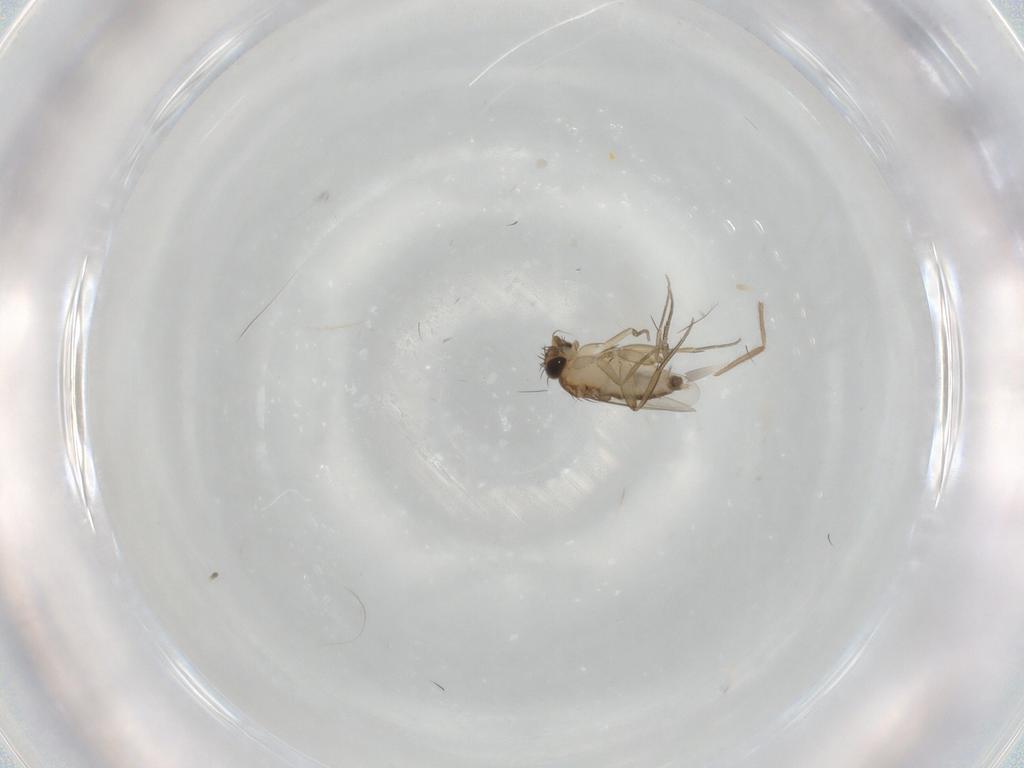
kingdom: Animalia
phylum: Arthropoda
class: Insecta
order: Diptera
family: Phoridae
